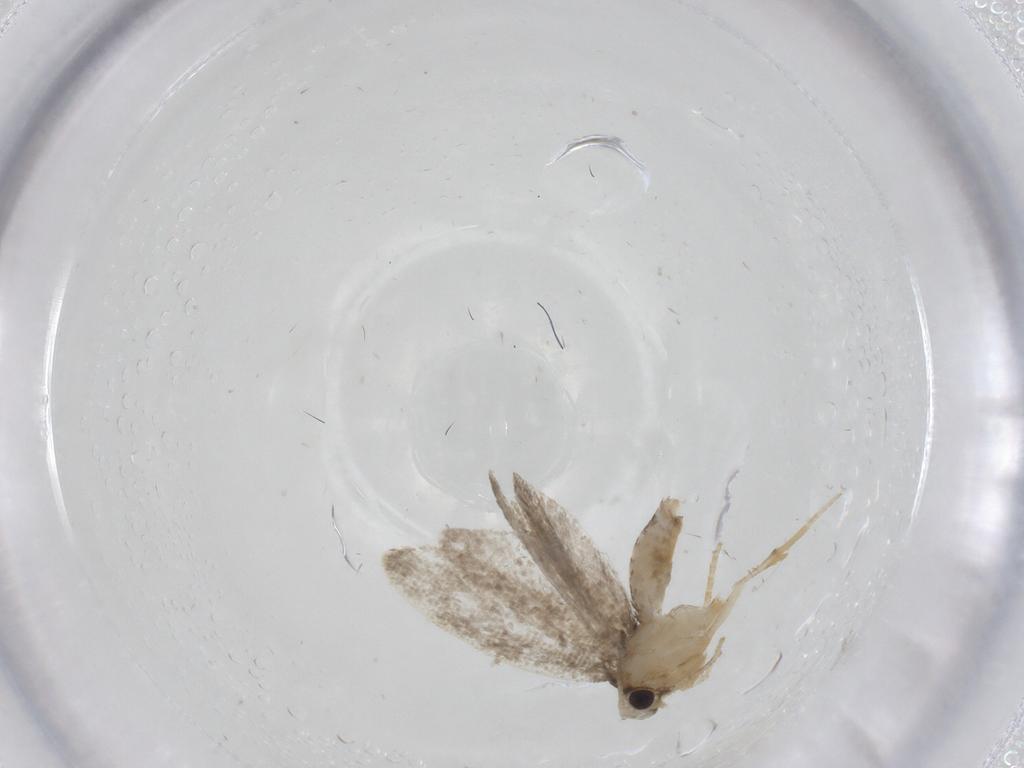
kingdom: Animalia
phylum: Arthropoda
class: Insecta
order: Lepidoptera
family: Psychidae
